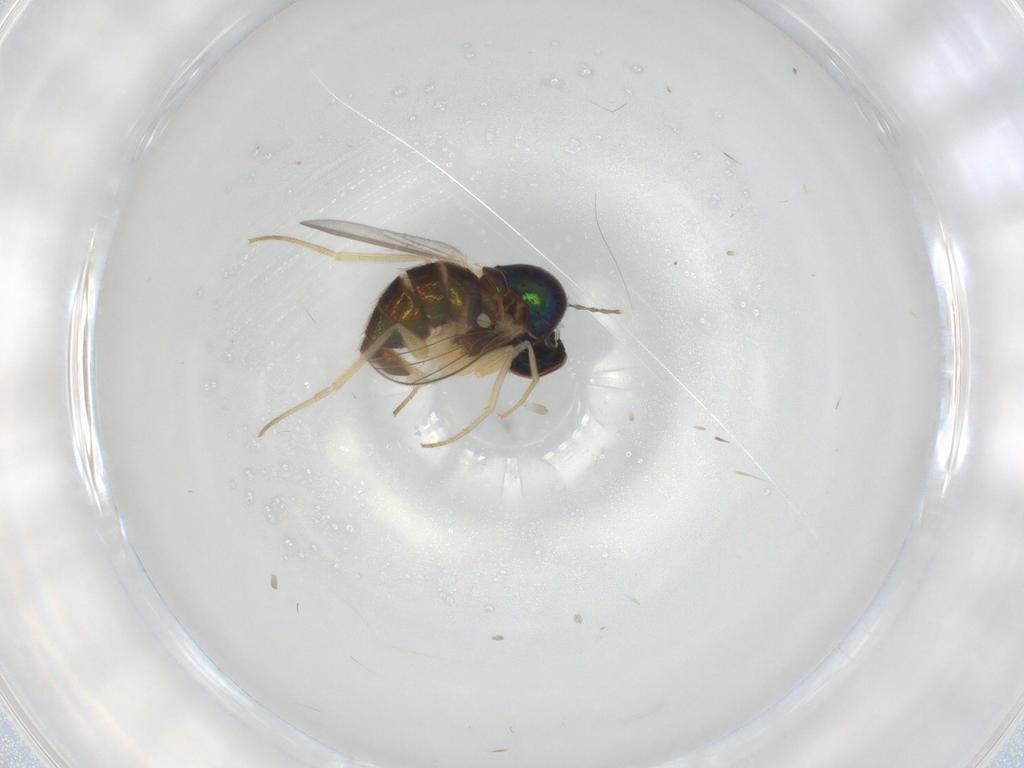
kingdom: Animalia
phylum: Arthropoda
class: Insecta
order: Diptera
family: Dolichopodidae
